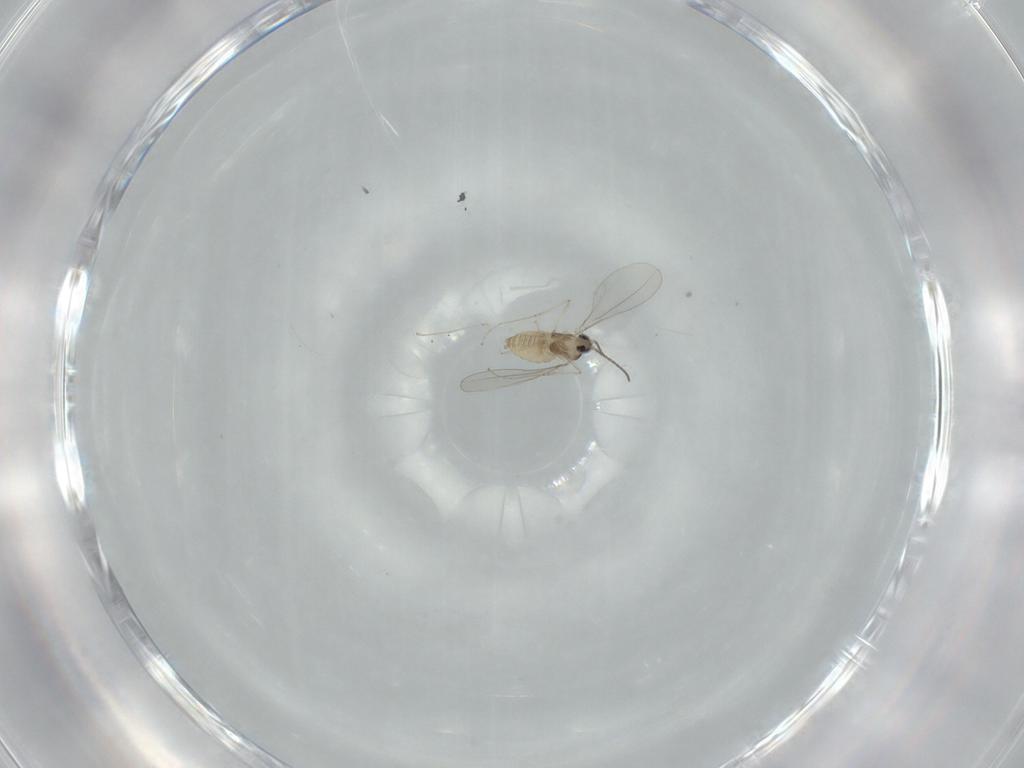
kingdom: Animalia
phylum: Arthropoda
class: Insecta
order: Diptera
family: Cecidomyiidae
